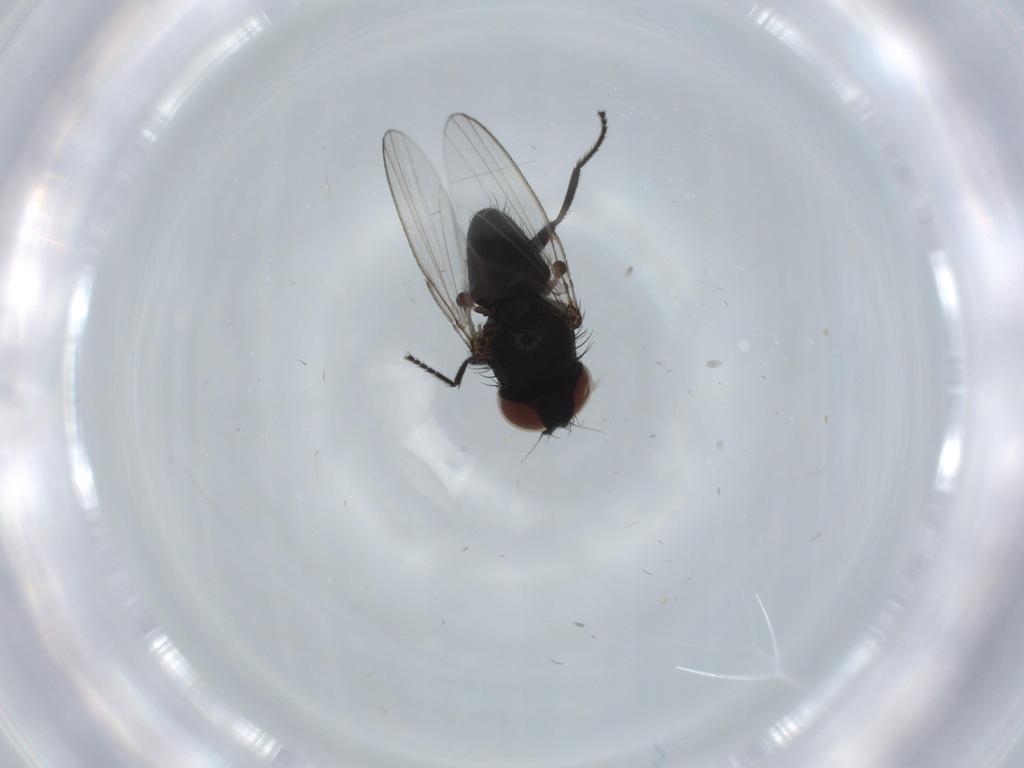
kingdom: Animalia
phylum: Arthropoda
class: Insecta
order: Diptera
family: Milichiidae
